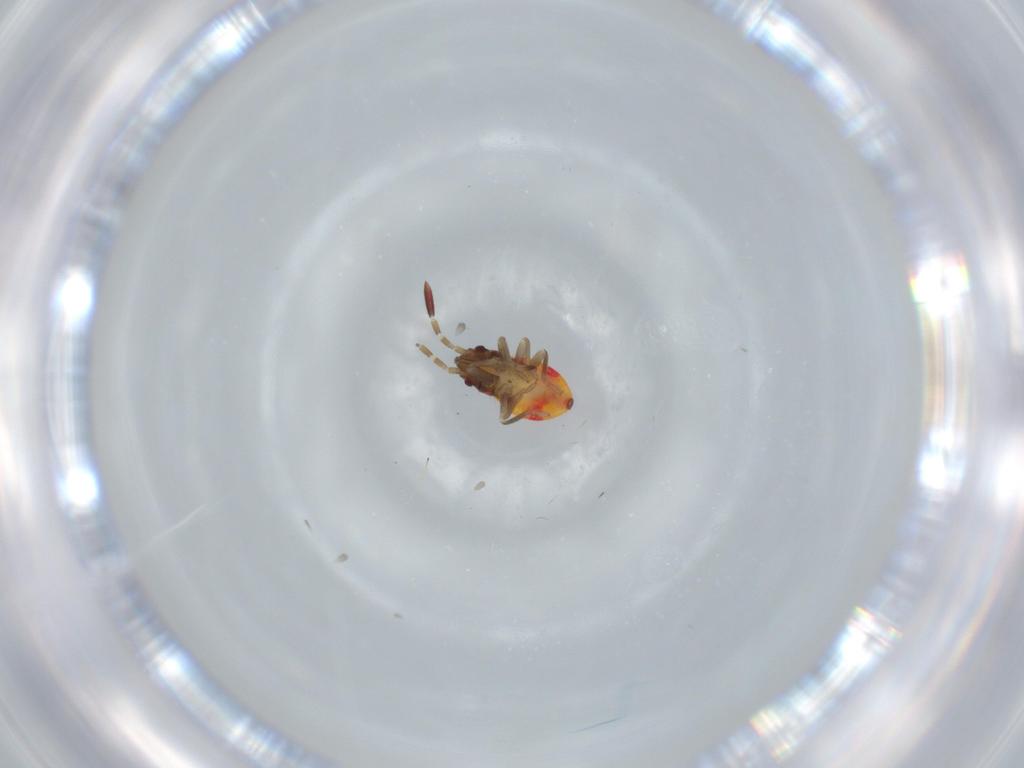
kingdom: Animalia
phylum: Arthropoda
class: Insecta
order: Hemiptera
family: Rhyparochromidae
